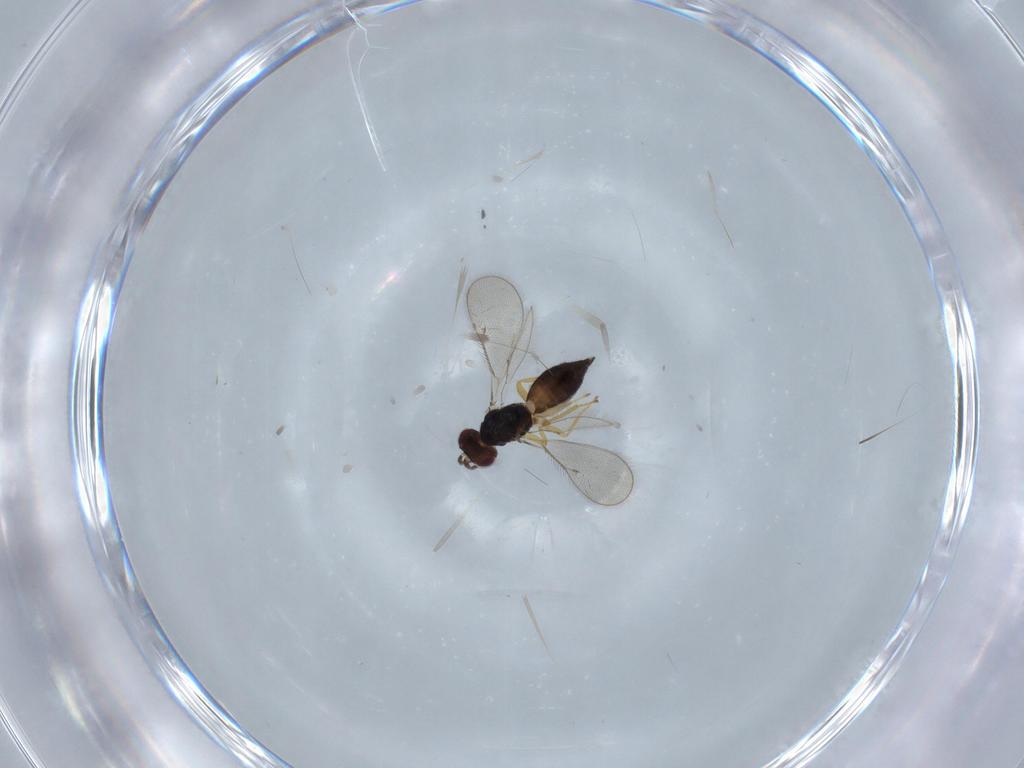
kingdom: Animalia
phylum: Arthropoda
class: Insecta
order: Hymenoptera
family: Eulophidae
